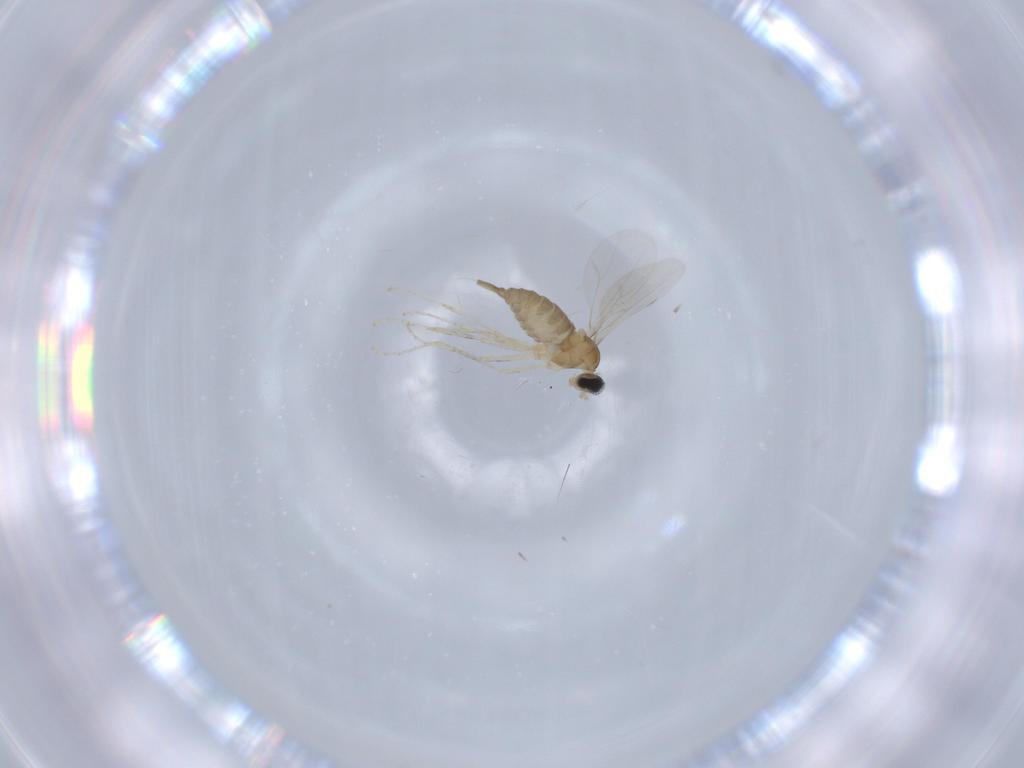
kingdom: Animalia
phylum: Arthropoda
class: Insecta
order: Diptera
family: Cecidomyiidae
